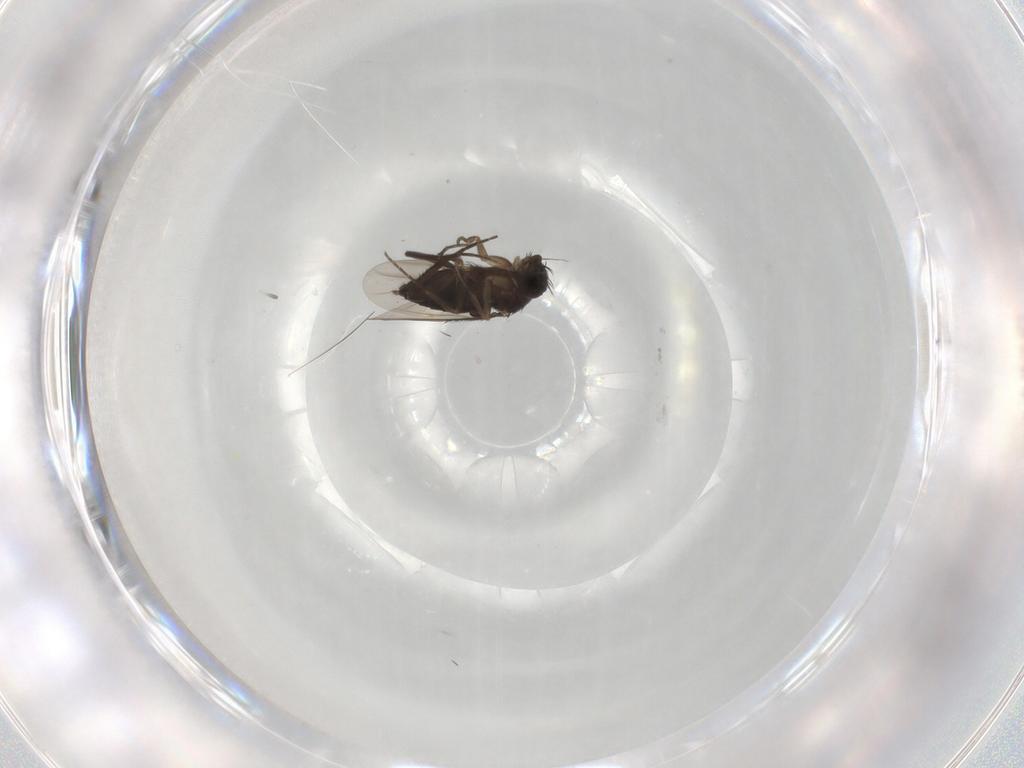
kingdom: Animalia
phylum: Arthropoda
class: Insecta
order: Diptera
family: Phoridae
